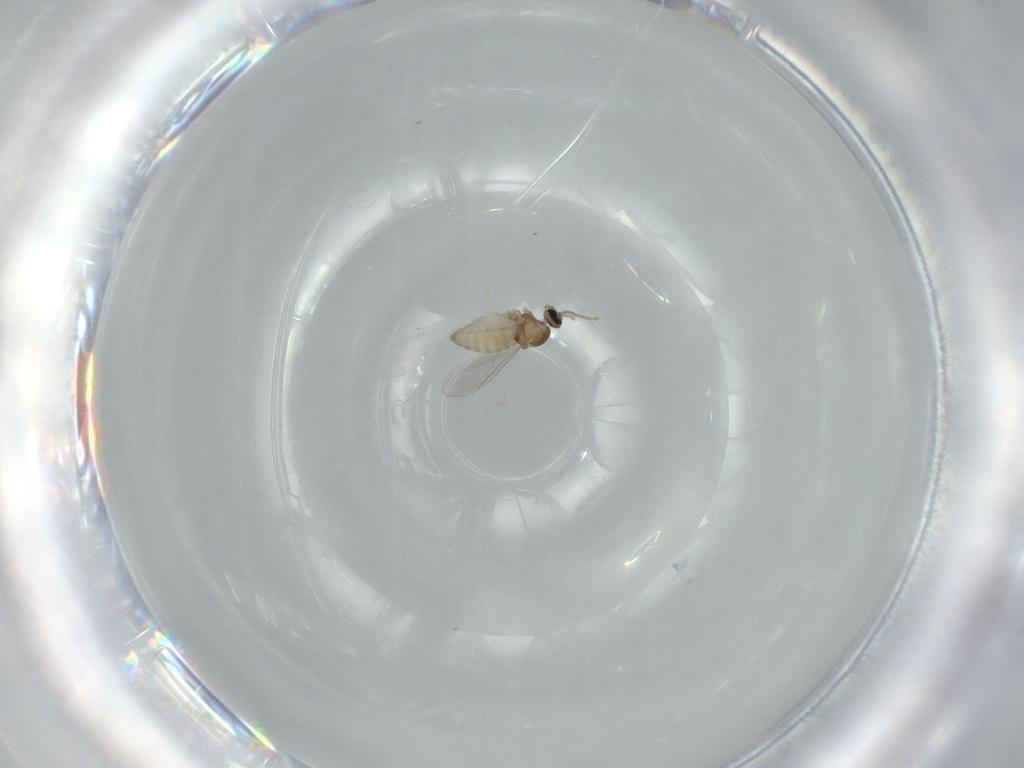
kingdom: Animalia
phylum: Arthropoda
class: Insecta
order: Diptera
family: Cecidomyiidae
